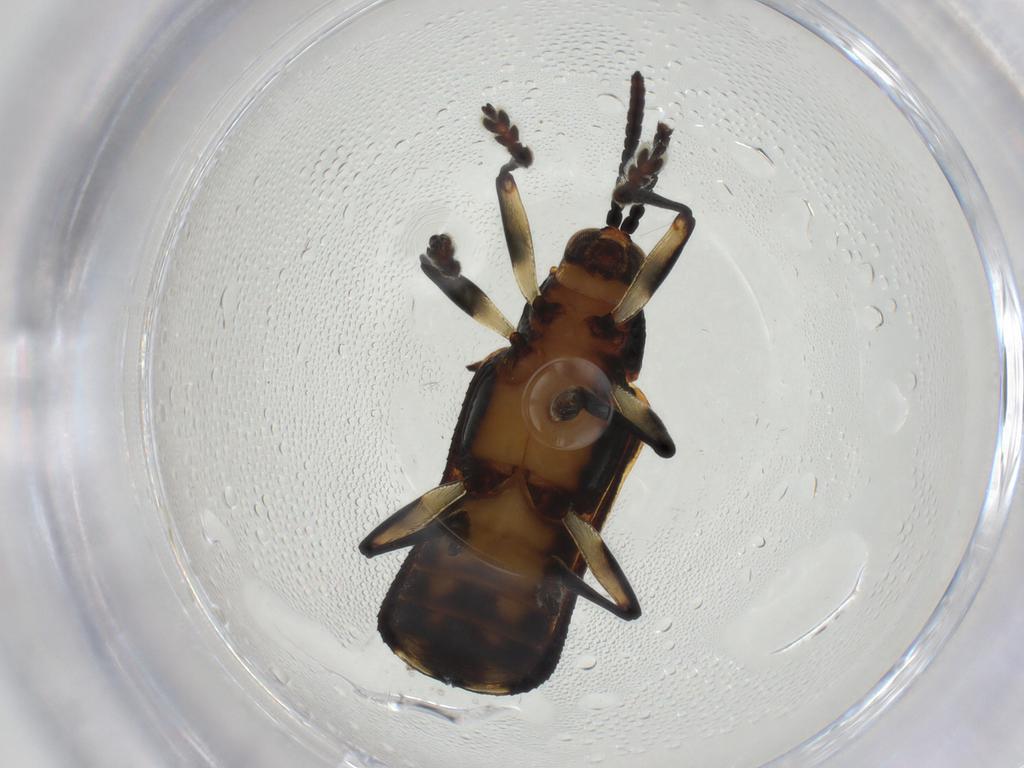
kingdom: Animalia
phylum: Arthropoda
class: Insecta
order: Coleoptera
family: Chrysomelidae
